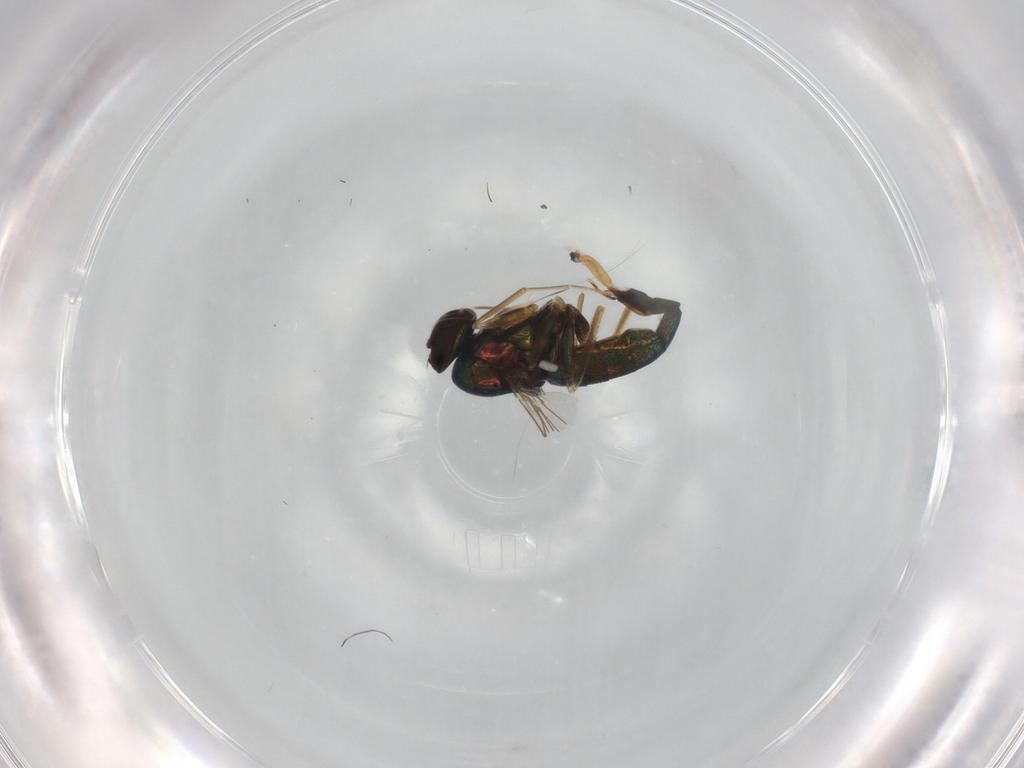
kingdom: Animalia
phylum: Arthropoda
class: Insecta
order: Diptera
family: Dolichopodidae
